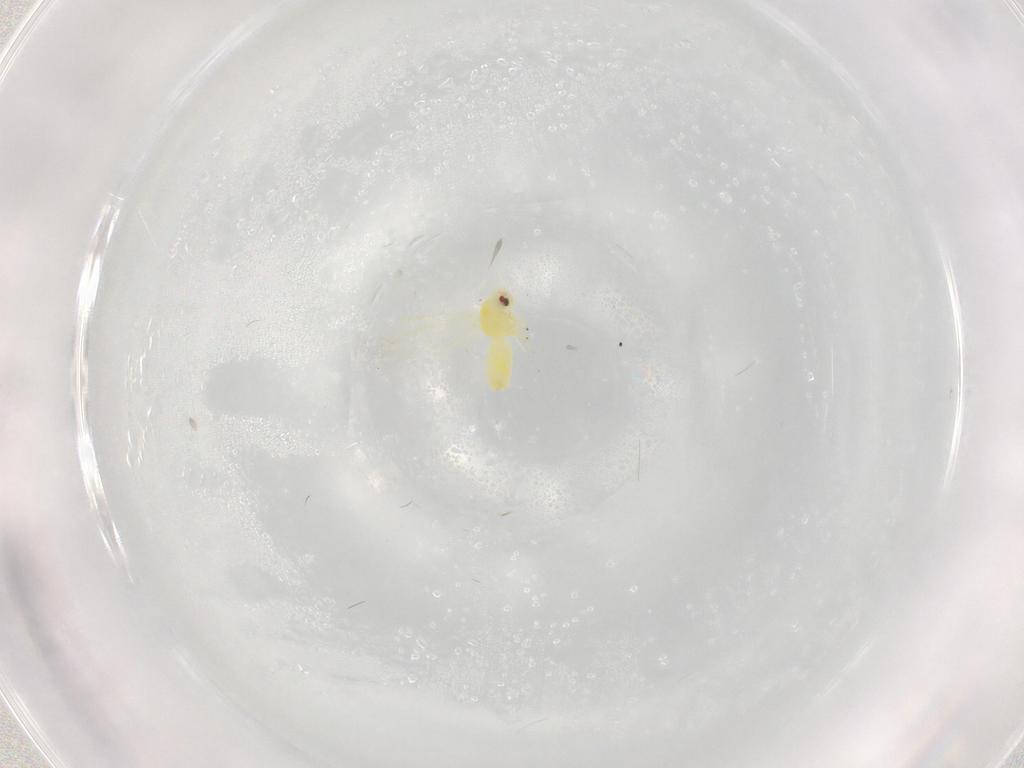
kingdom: Animalia
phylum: Arthropoda
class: Insecta
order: Hemiptera
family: Aleyrodidae
